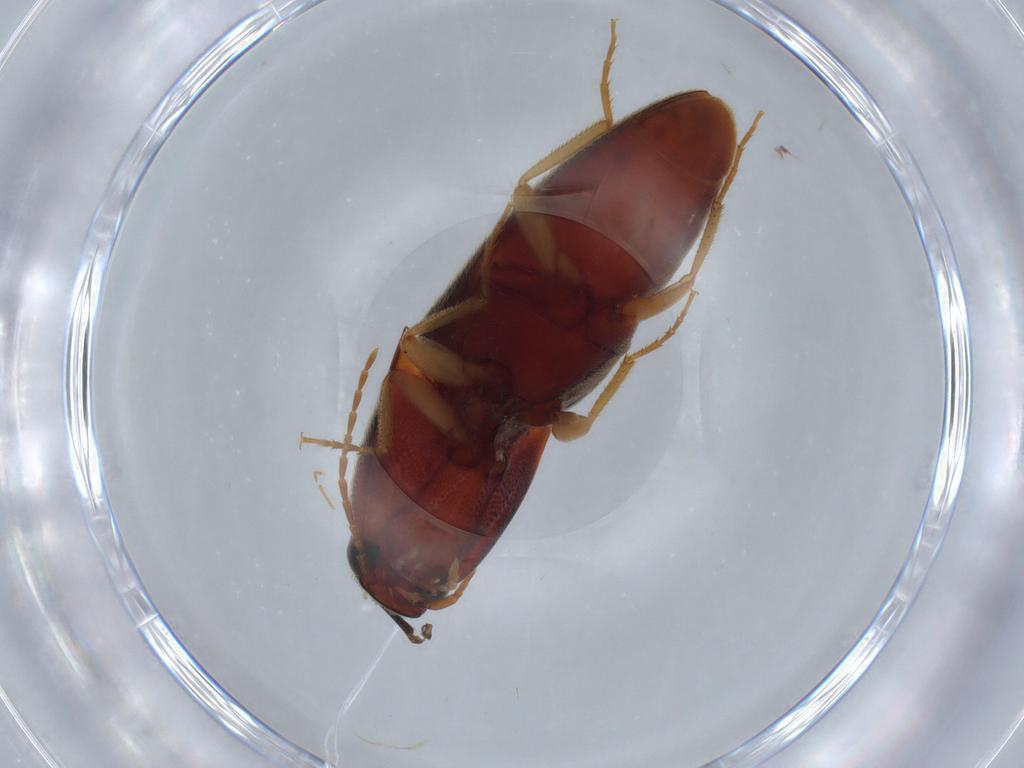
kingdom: Animalia
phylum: Arthropoda
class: Insecta
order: Coleoptera
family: Elateridae
